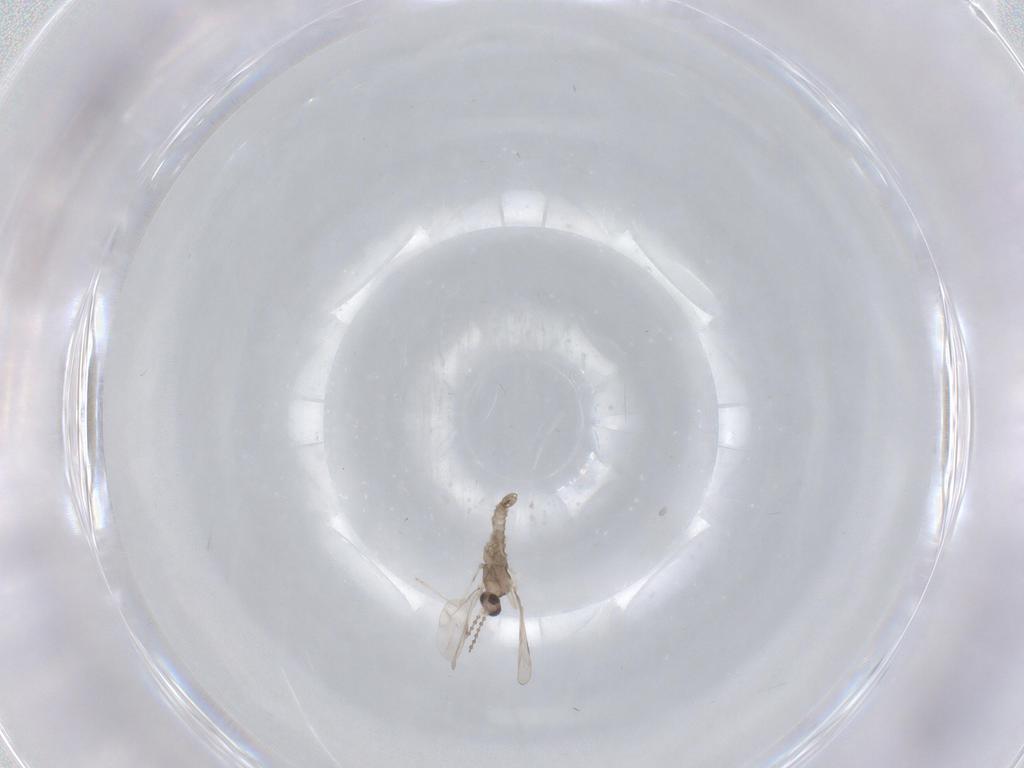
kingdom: Animalia
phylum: Arthropoda
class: Insecta
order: Diptera
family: Cecidomyiidae
